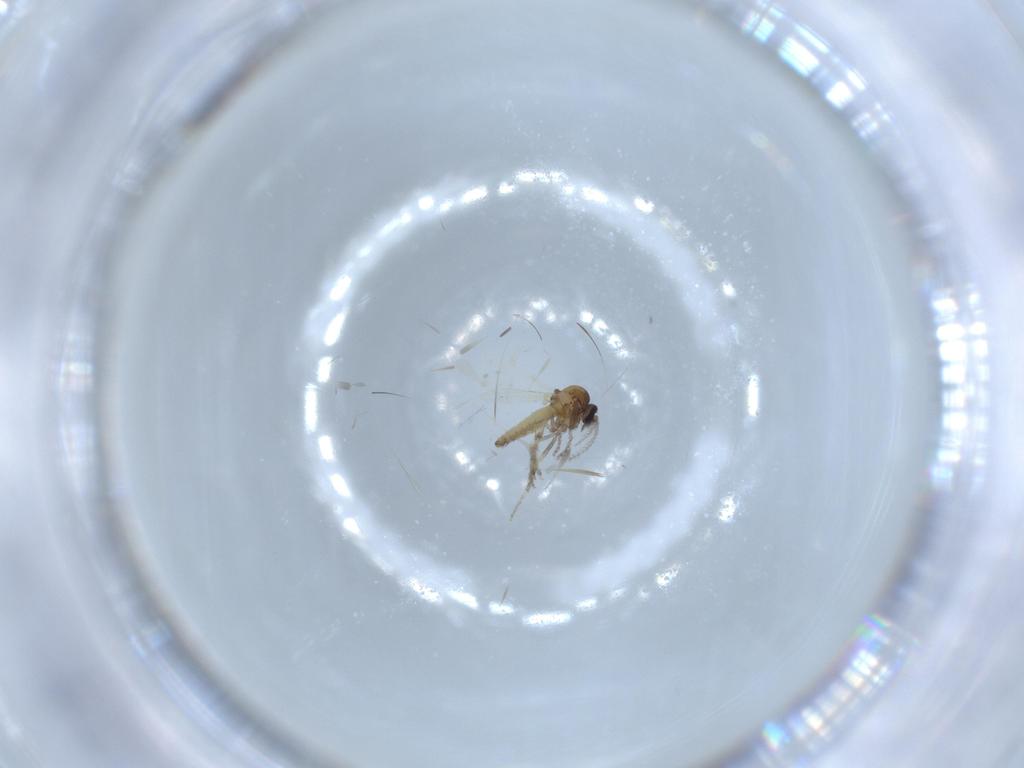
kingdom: Animalia
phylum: Arthropoda
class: Insecta
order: Diptera
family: Ceratopogonidae
